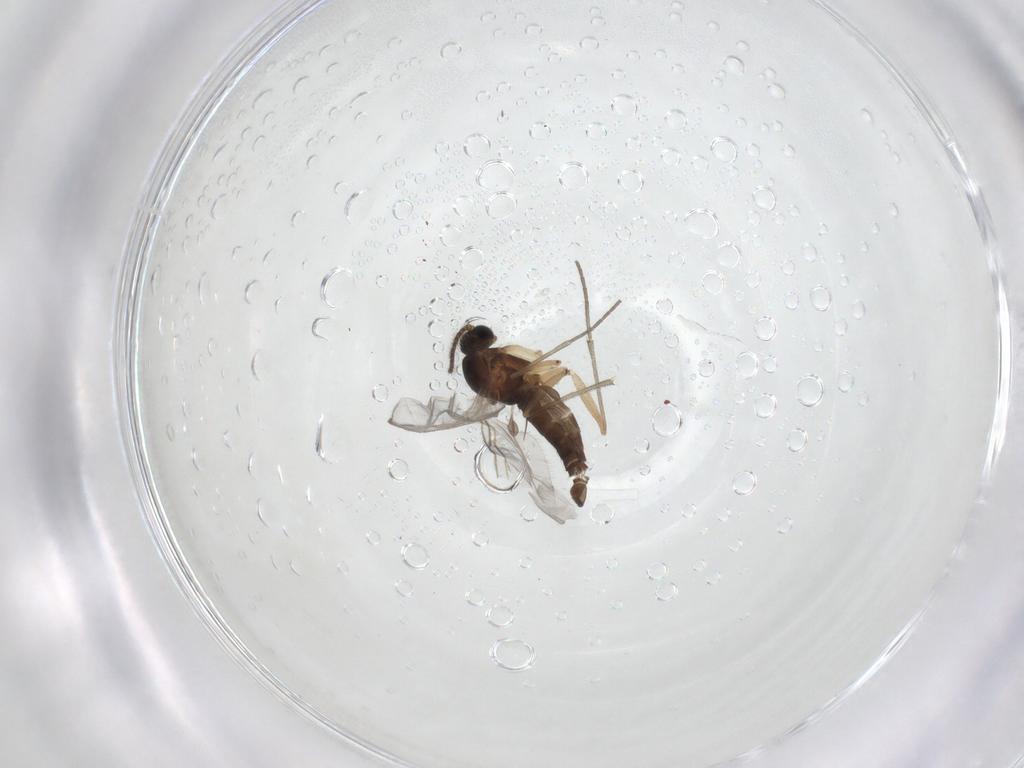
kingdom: Animalia
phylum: Arthropoda
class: Insecta
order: Diptera
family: Sciaridae
